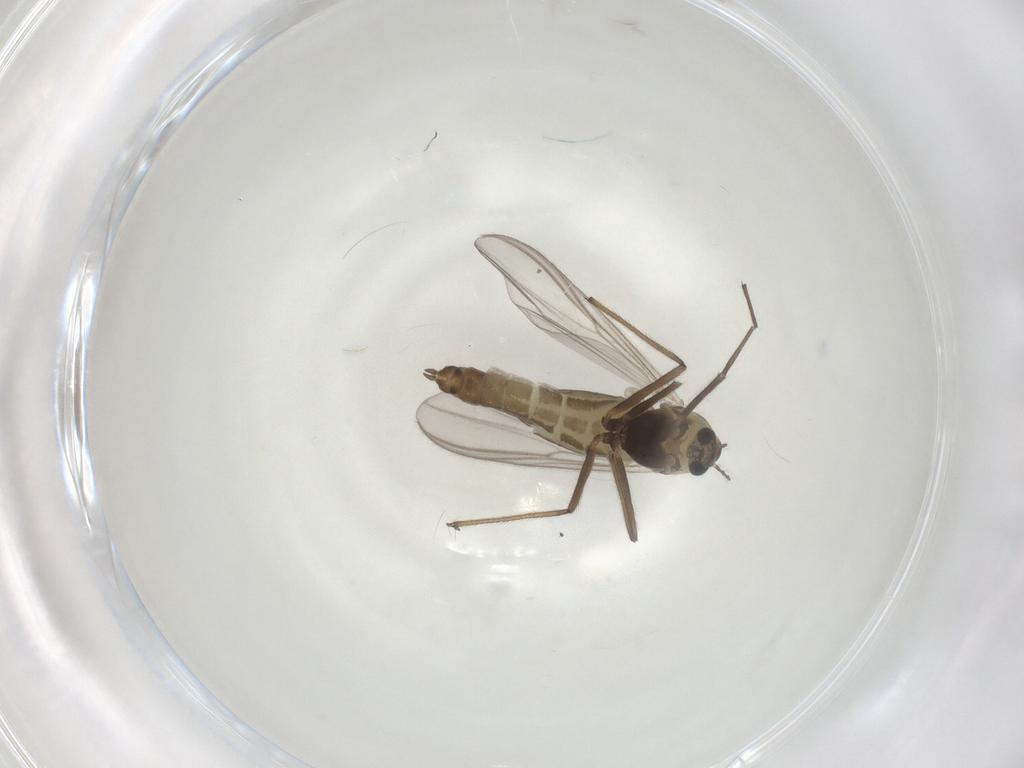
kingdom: Animalia
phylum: Arthropoda
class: Insecta
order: Diptera
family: Chironomidae
